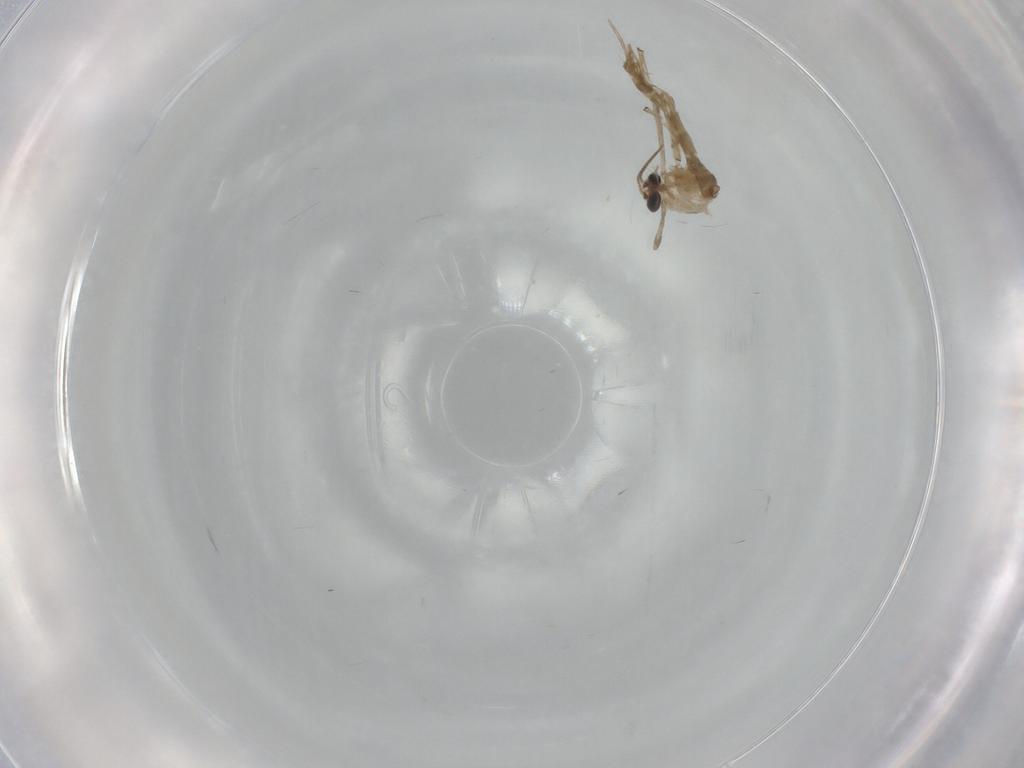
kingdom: Animalia
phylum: Arthropoda
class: Insecta
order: Diptera
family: Chironomidae
